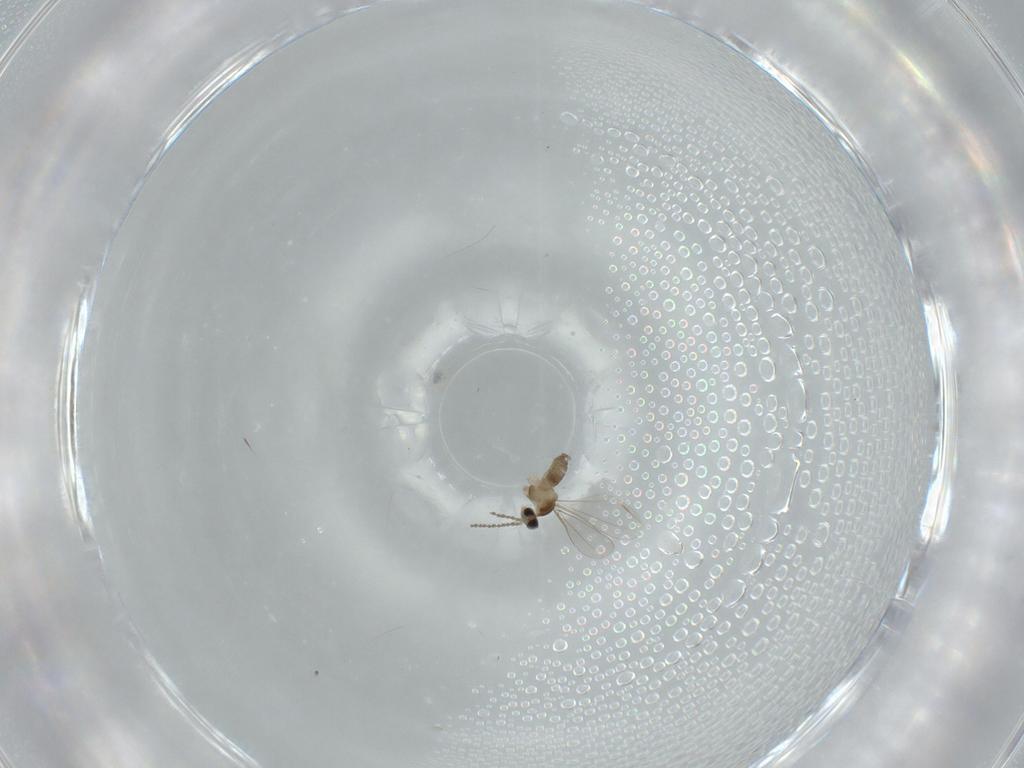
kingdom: Animalia
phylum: Arthropoda
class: Insecta
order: Diptera
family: Cecidomyiidae
